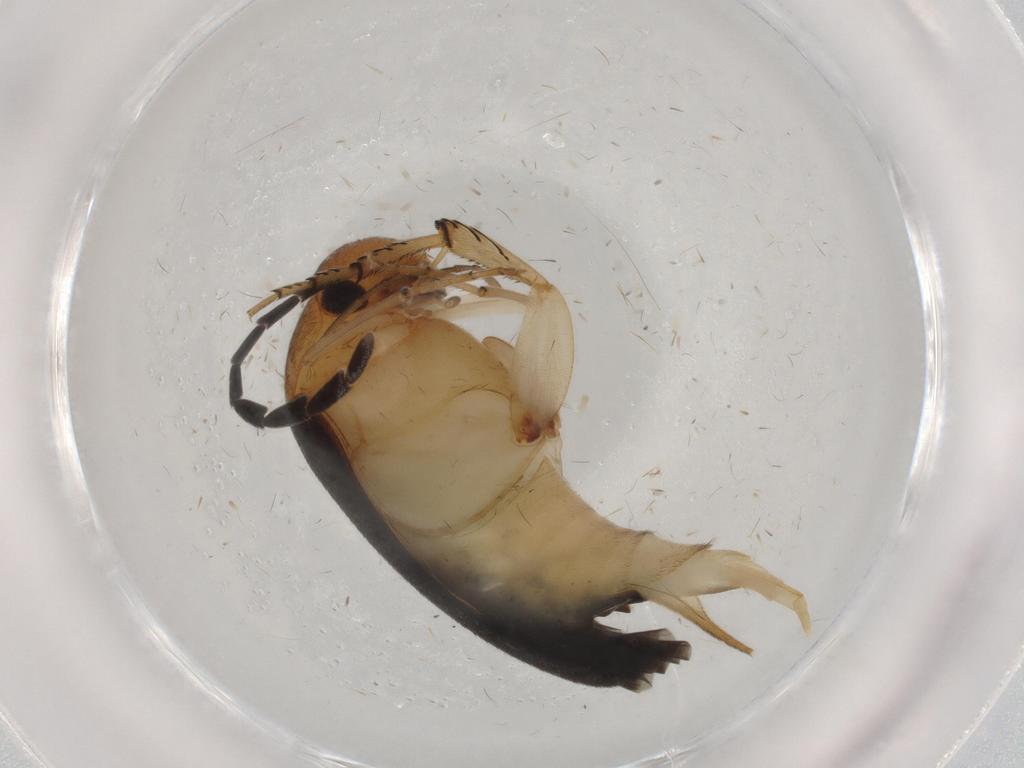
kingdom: Animalia
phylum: Arthropoda
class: Insecta
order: Coleoptera
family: Mordellidae
